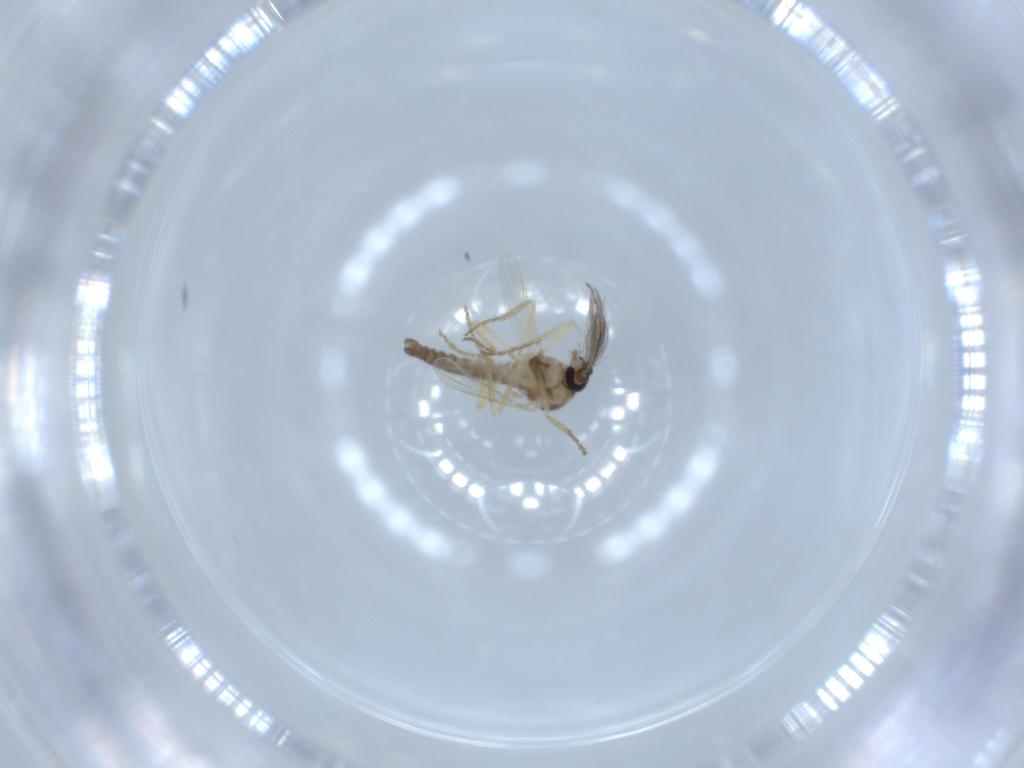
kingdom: Animalia
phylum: Arthropoda
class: Insecta
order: Diptera
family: Ceratopogonidae
